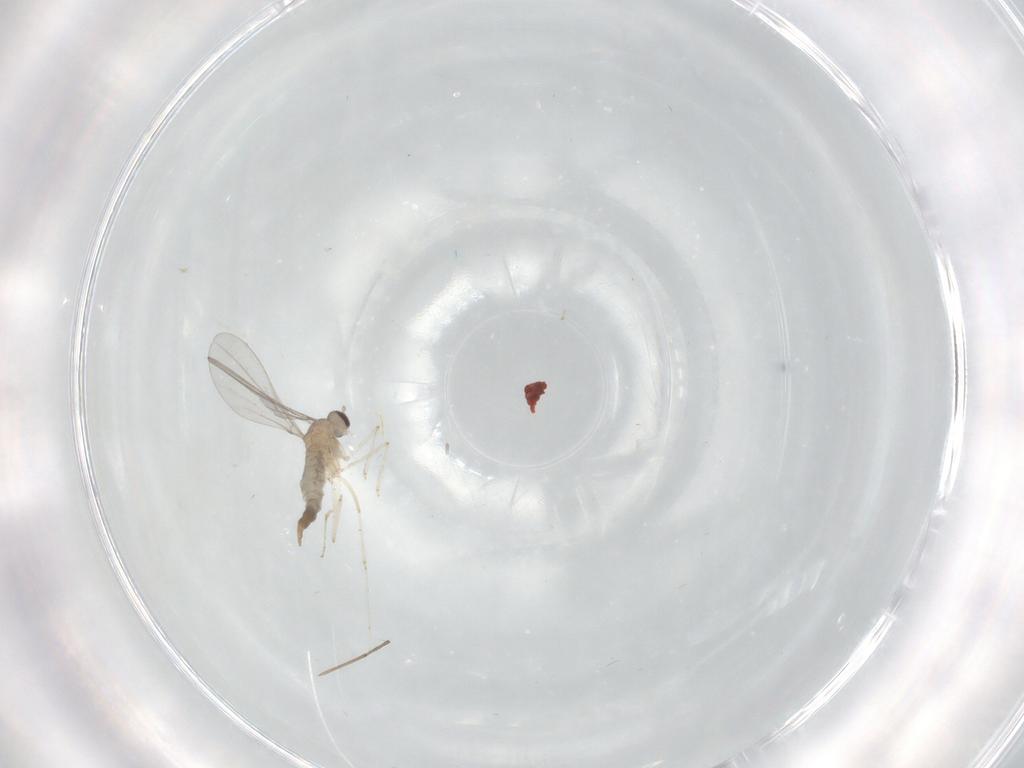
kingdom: Animalia
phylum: Arthropoda
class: Insecta
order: Diptera
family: Cecidomyiidae
